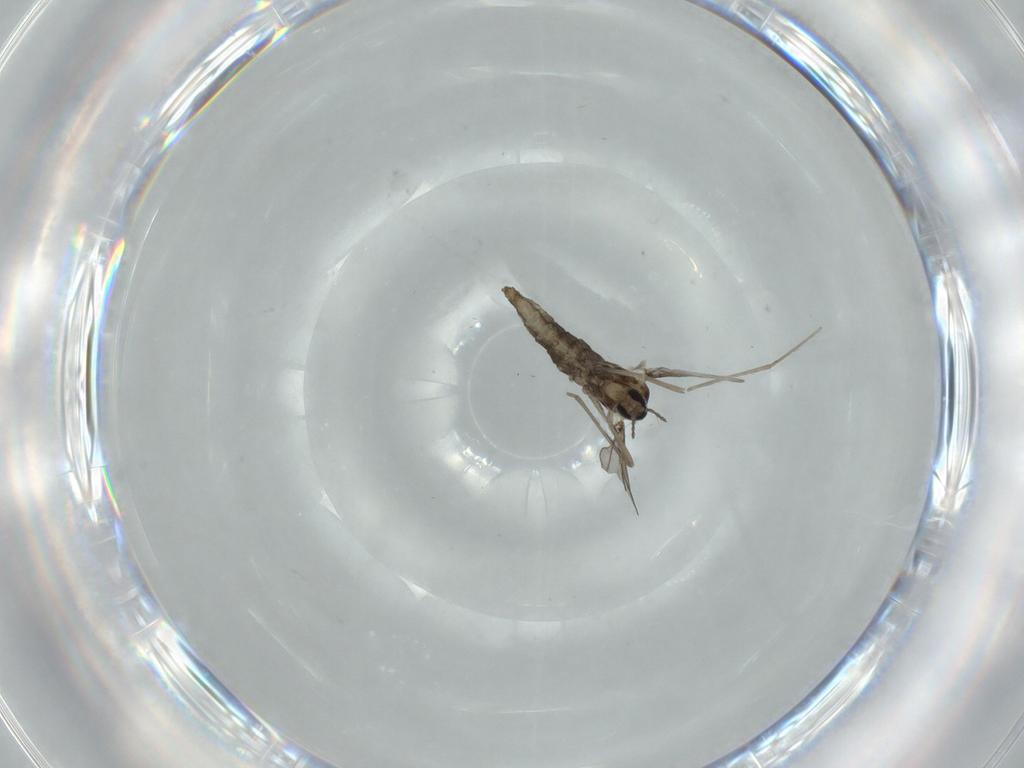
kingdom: Animalia
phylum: Arthropoda
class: Insecta
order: Diptera
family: Cecidomyiidae
